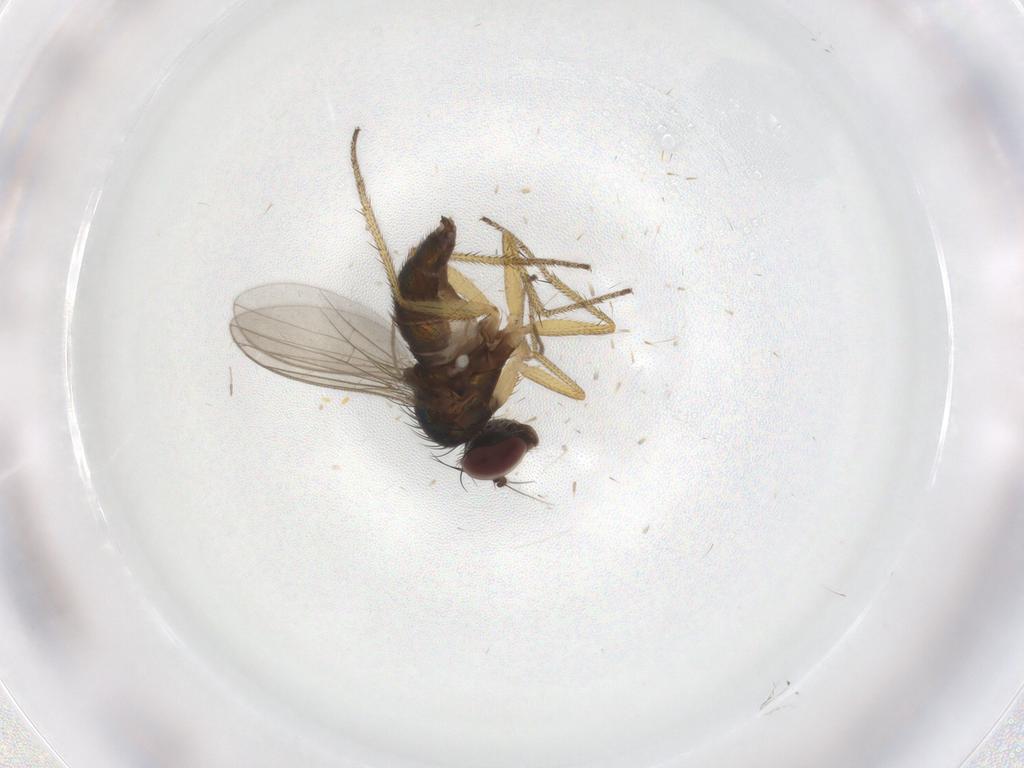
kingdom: Animalia
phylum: Arthropoda
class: Insecta
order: Diptera
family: Dolichopodidae
